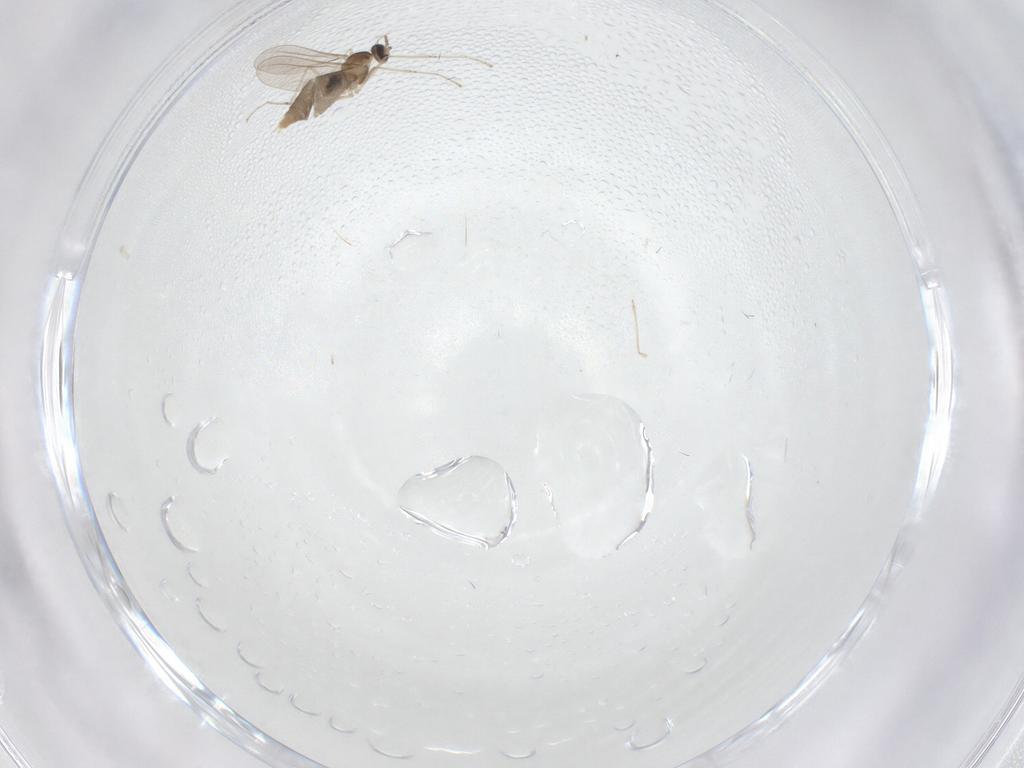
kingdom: Animalia
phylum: Arthropoda
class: Insecta
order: Diptera
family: Tipulidae
